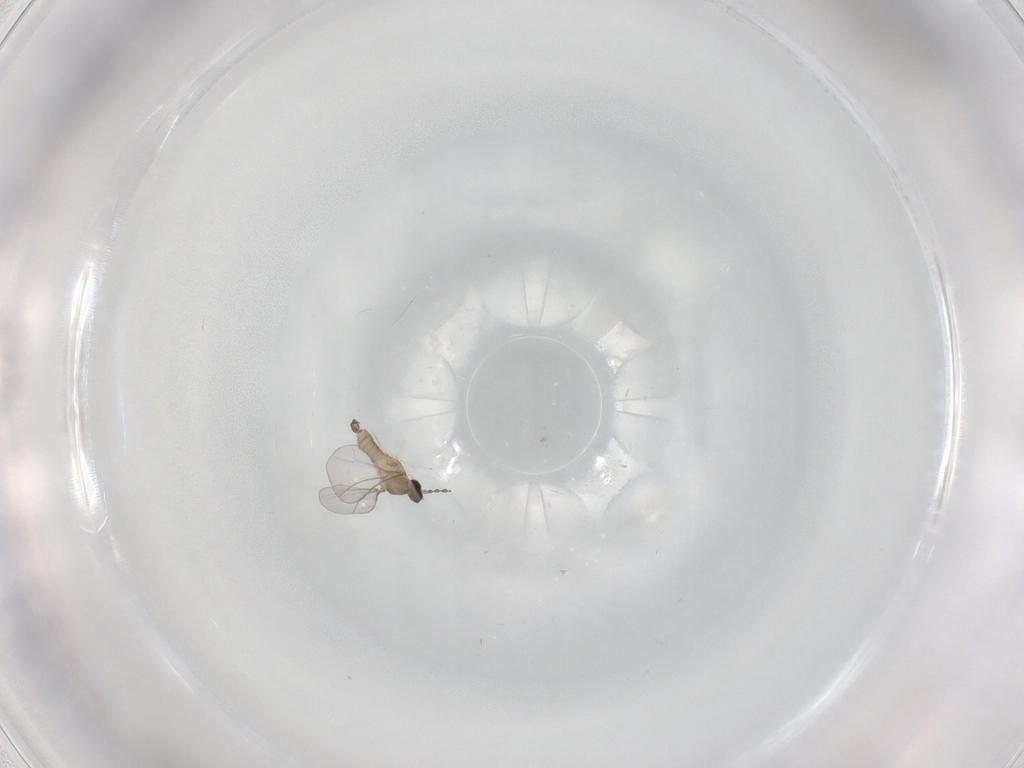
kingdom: Animalia
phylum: Arthropoda
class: Insecta
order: Diptera
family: Cecidomyiidae
